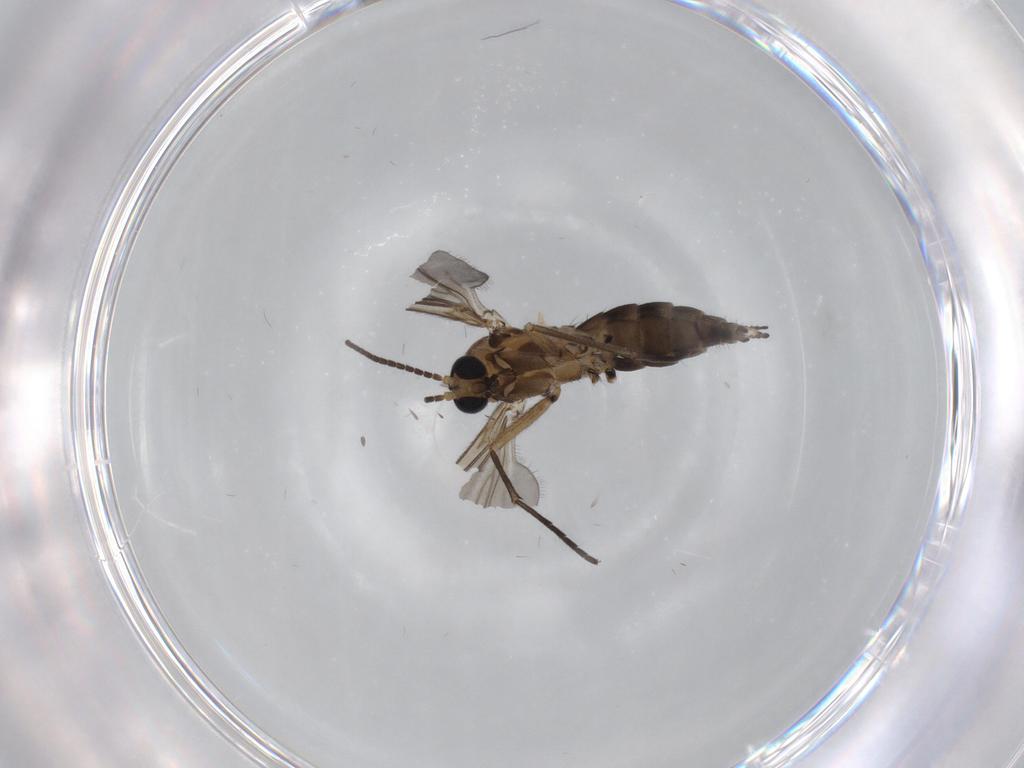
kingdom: Animalia
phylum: Arthropoda
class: Insecta
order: Diptera
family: Sciaridae
